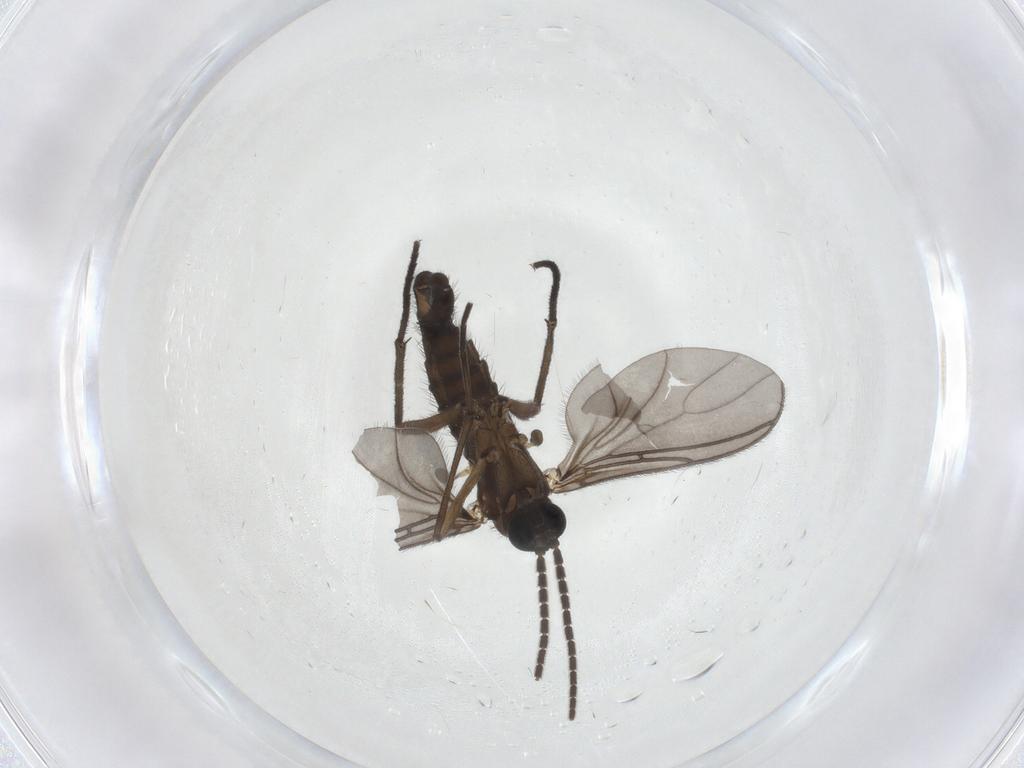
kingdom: Animalia
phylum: Arthropoda
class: Insecta
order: Diptera
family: Sciaridae
